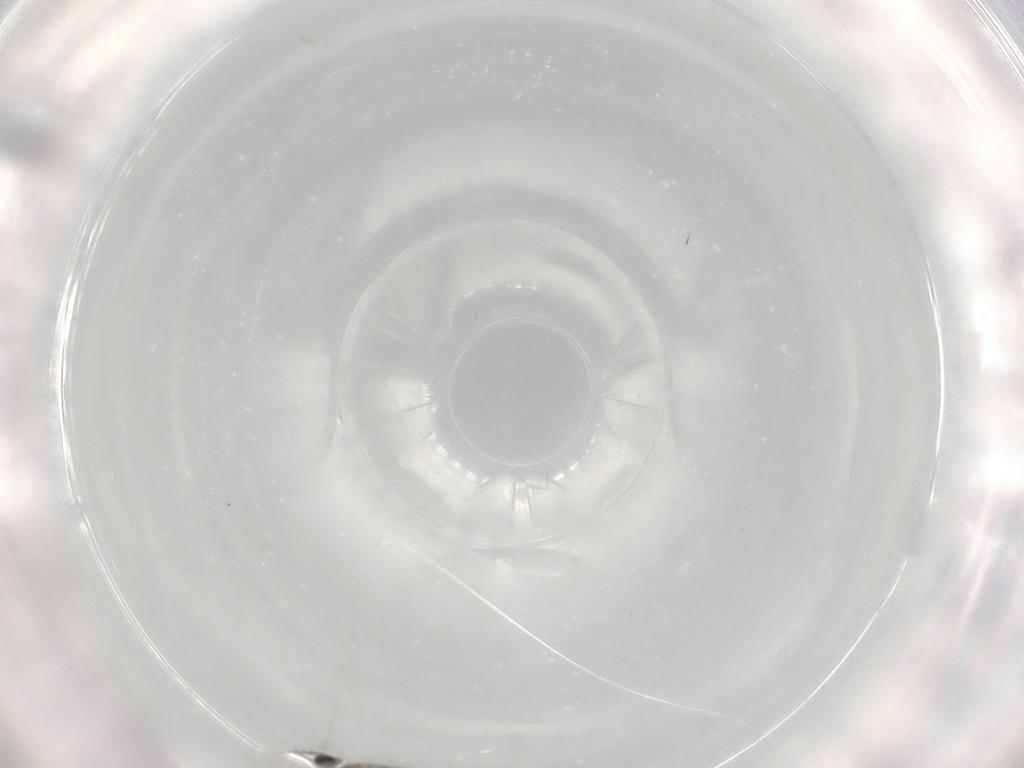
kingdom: Animalia
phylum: Arthropoda
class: Insecta
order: Diptera
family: Cecidomyiidae
